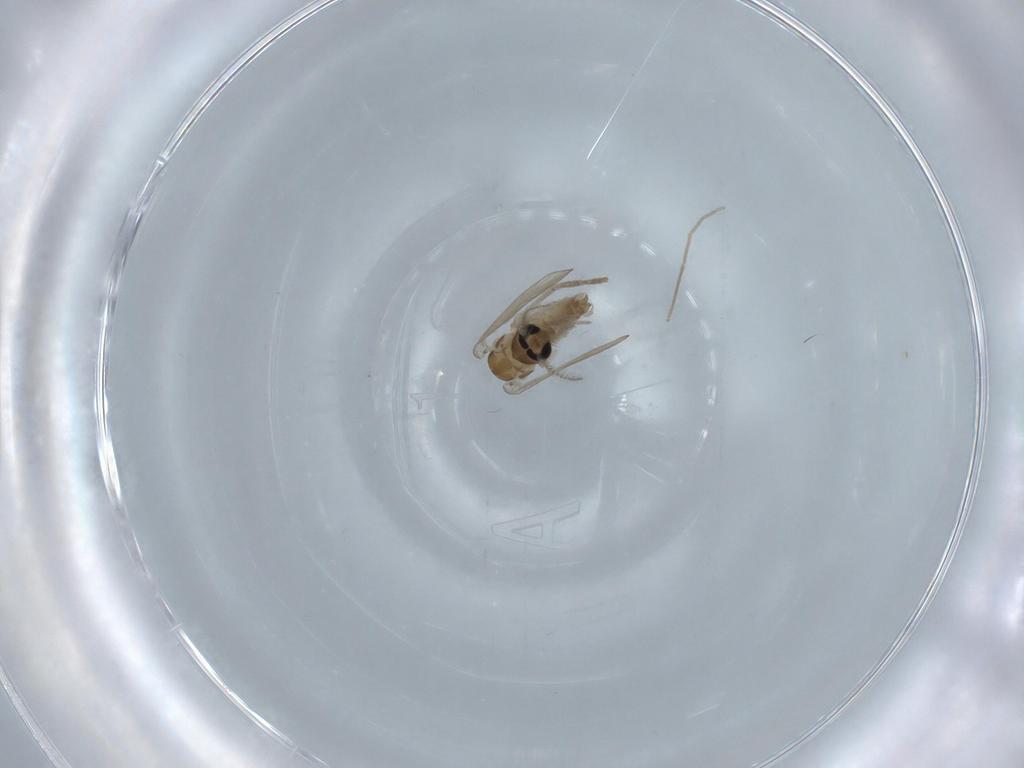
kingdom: Animalia
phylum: Arthropoda
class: Insecta
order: Diptera
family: Psychodidae
